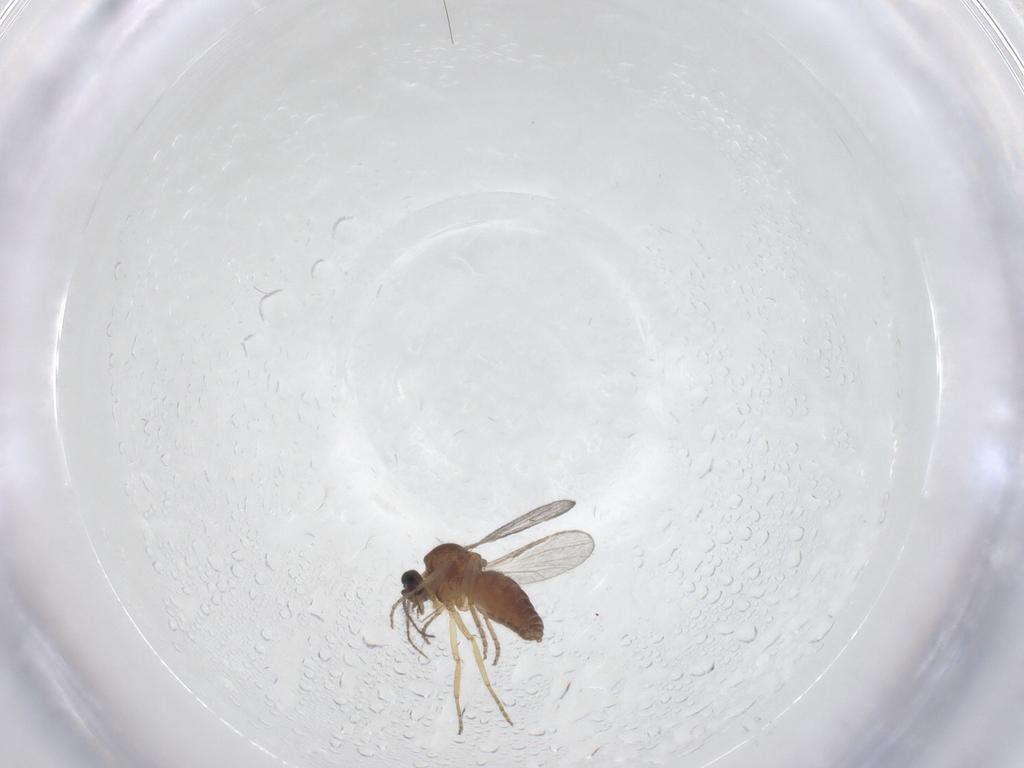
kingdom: Animalia
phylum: Arthropoda
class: Insecta
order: Diptera
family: Ceratopogonidae
